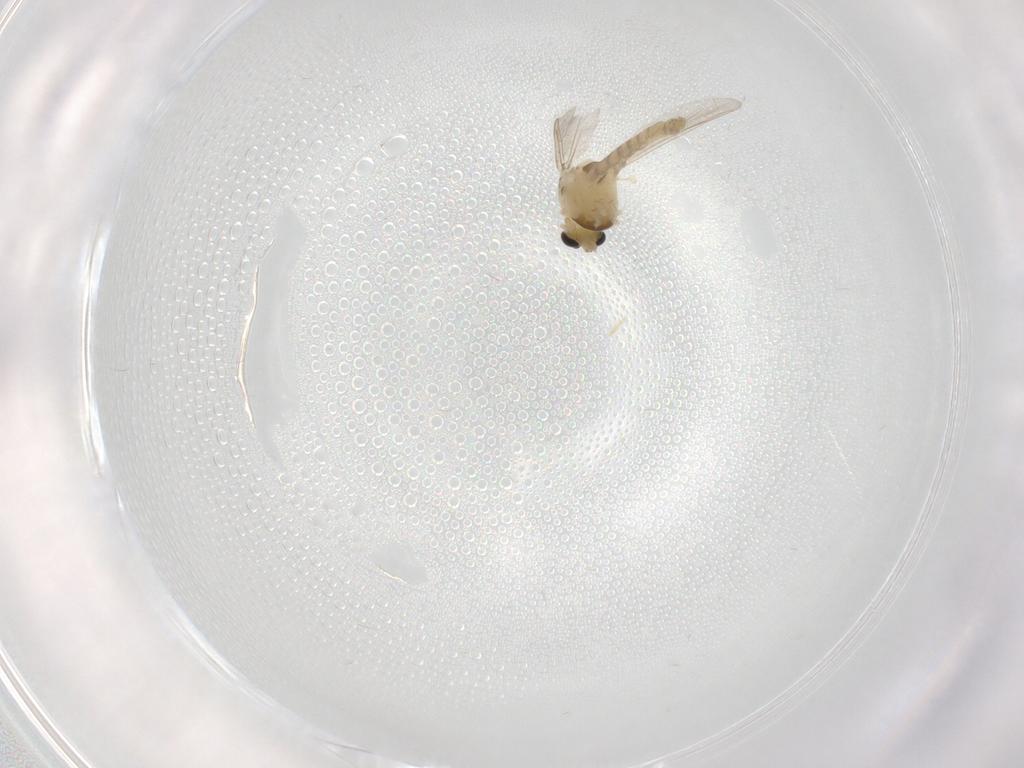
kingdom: Animalia
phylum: Arthropoda
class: Insecta
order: Diptera
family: Chironomidae
